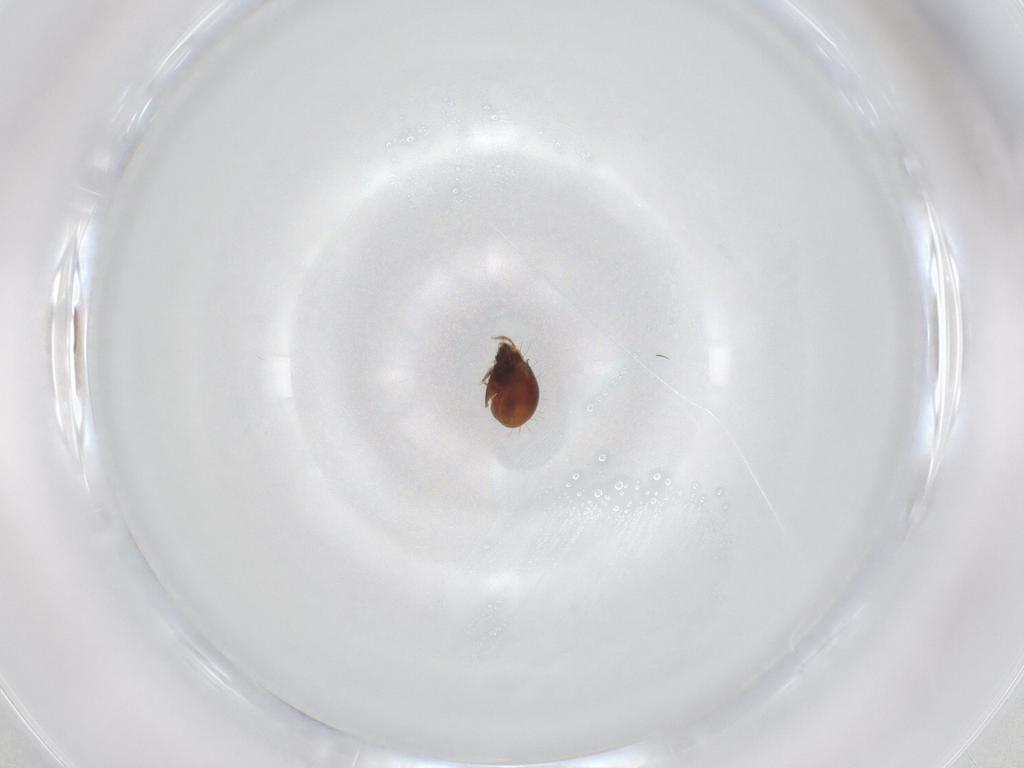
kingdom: Animalia
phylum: Arthropoda
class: Arachnida
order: Sarcoptiformes
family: Humerobatidae
